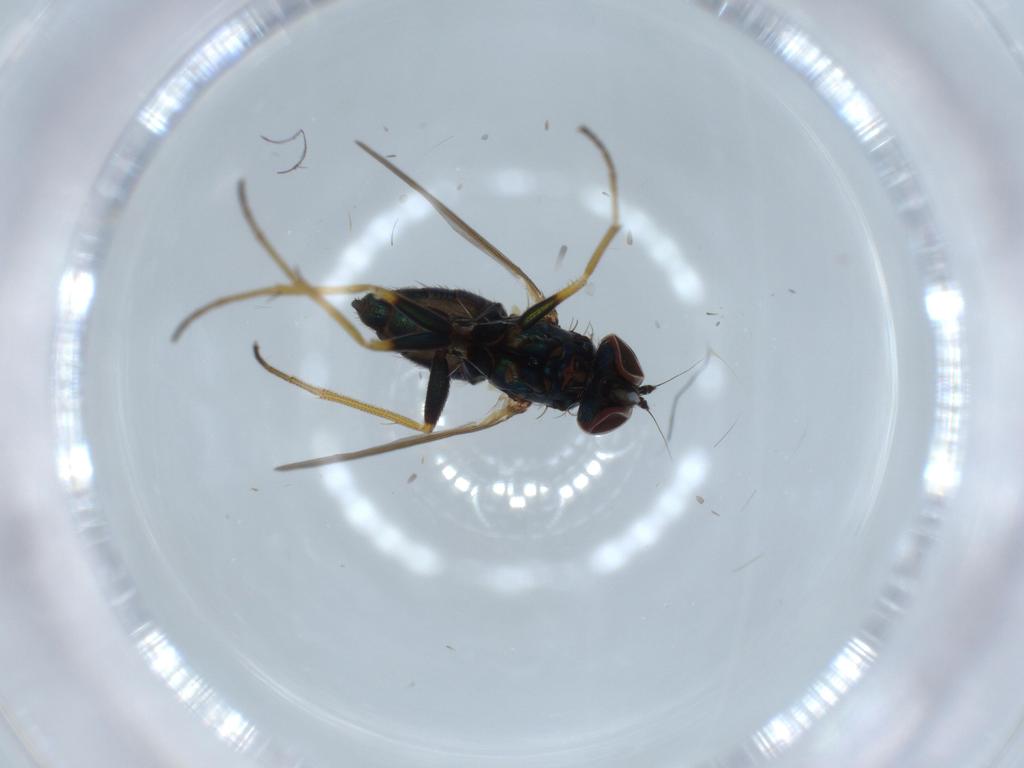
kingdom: Animalia
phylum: Arthropoda
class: Insecta
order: Diptera
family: Dolichopodidae
